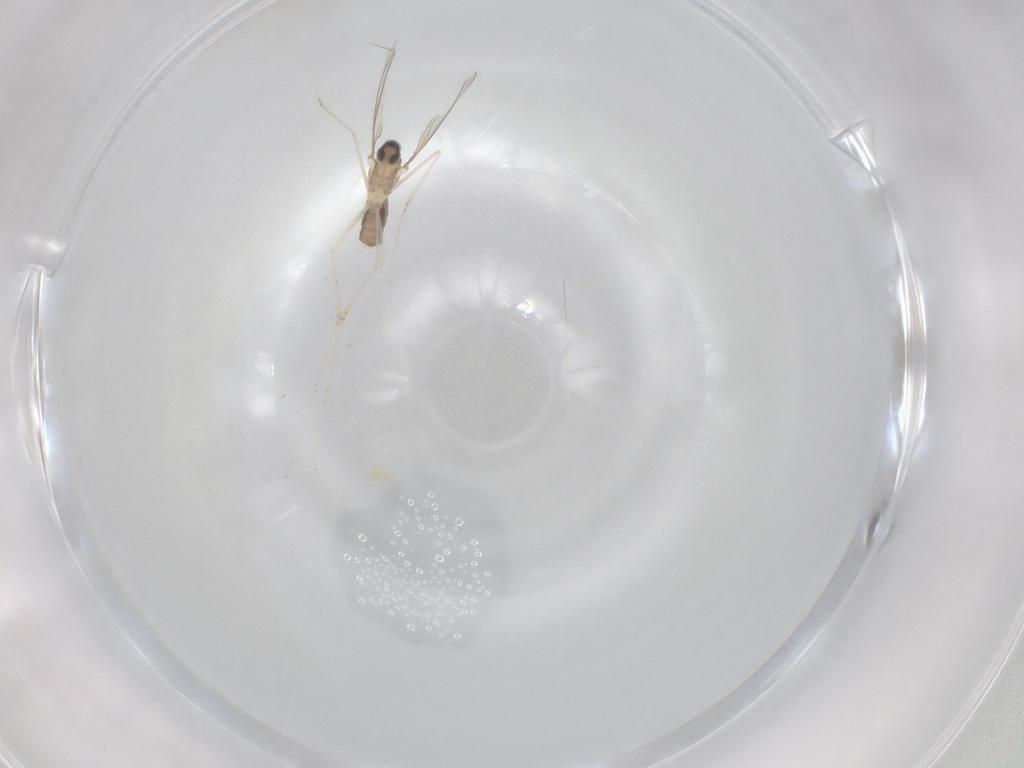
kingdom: Animalia
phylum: Arthropoda
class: Insecta
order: Diptera
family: Cecidomyiidae
